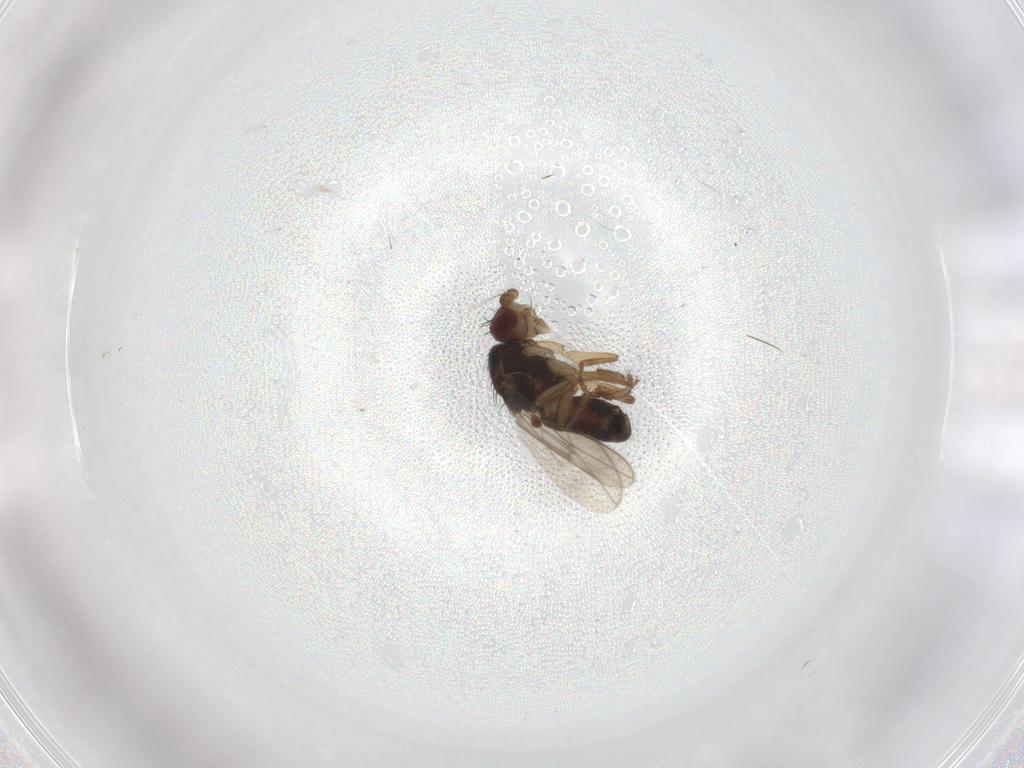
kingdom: Animalia
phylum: Arthropoda
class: Insecta
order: Diptera
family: Sphaeroceridae
